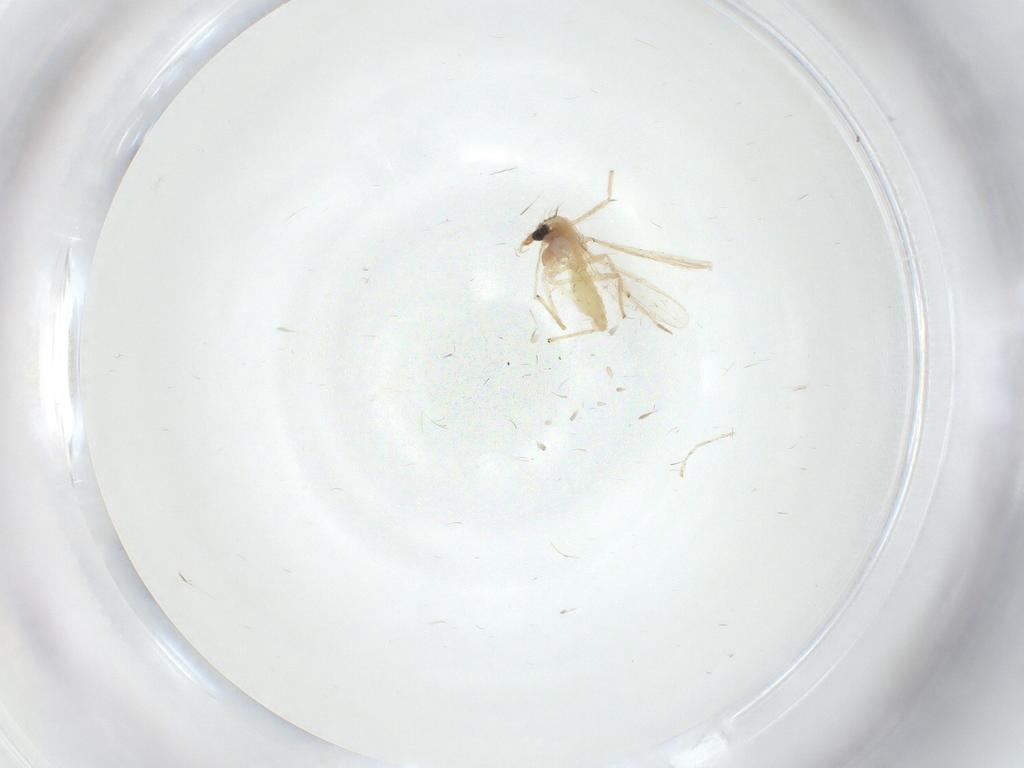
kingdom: Animalia
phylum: Arthropoda
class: Insecta
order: Diptera
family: Chironomidae
